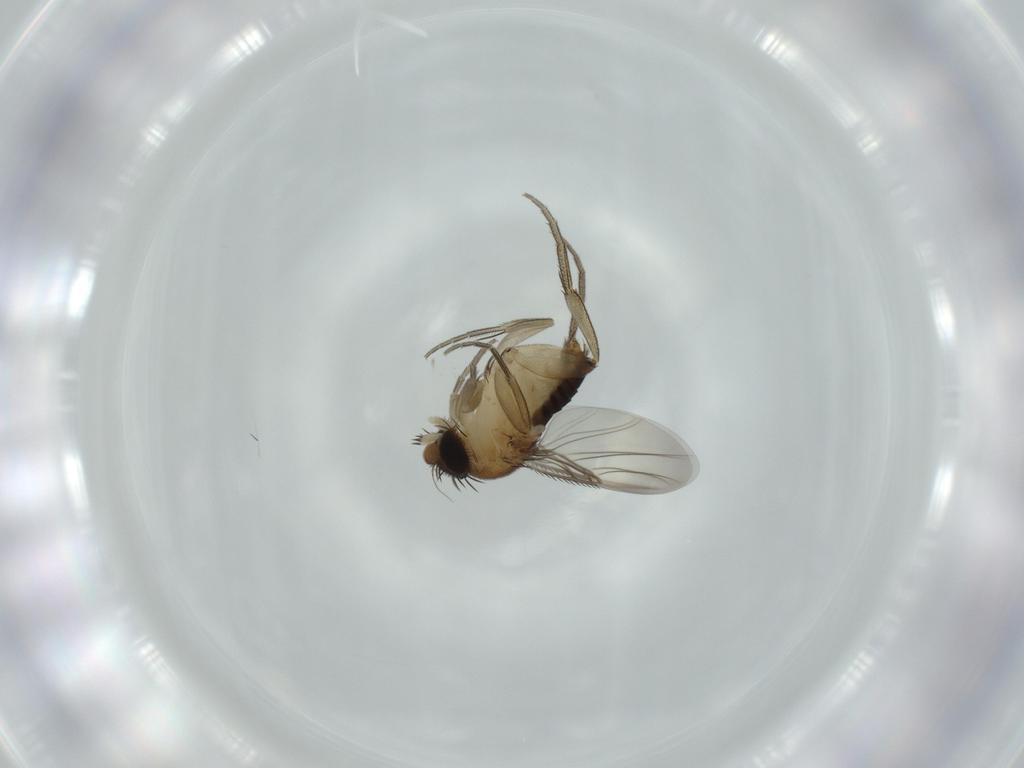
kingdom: Animalia
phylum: Arthropoda
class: Insecta
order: Diptera
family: Phoridae
